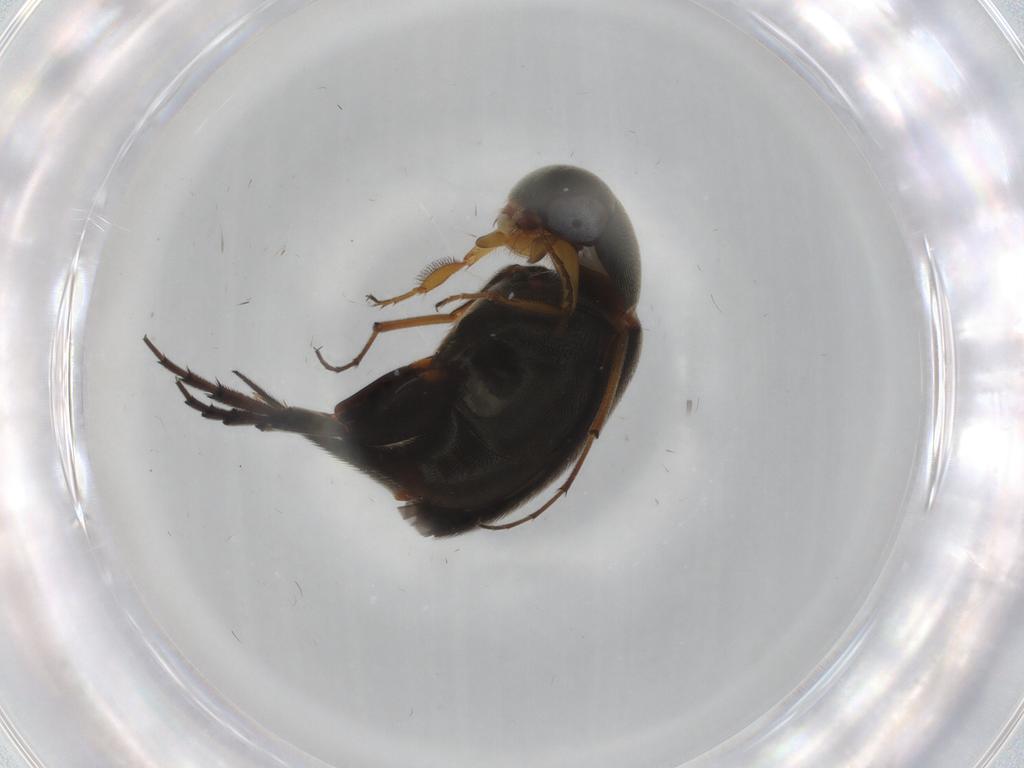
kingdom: Animalia
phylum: Arthropoda
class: Insecta
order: Coleoptera
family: Mordellidae
